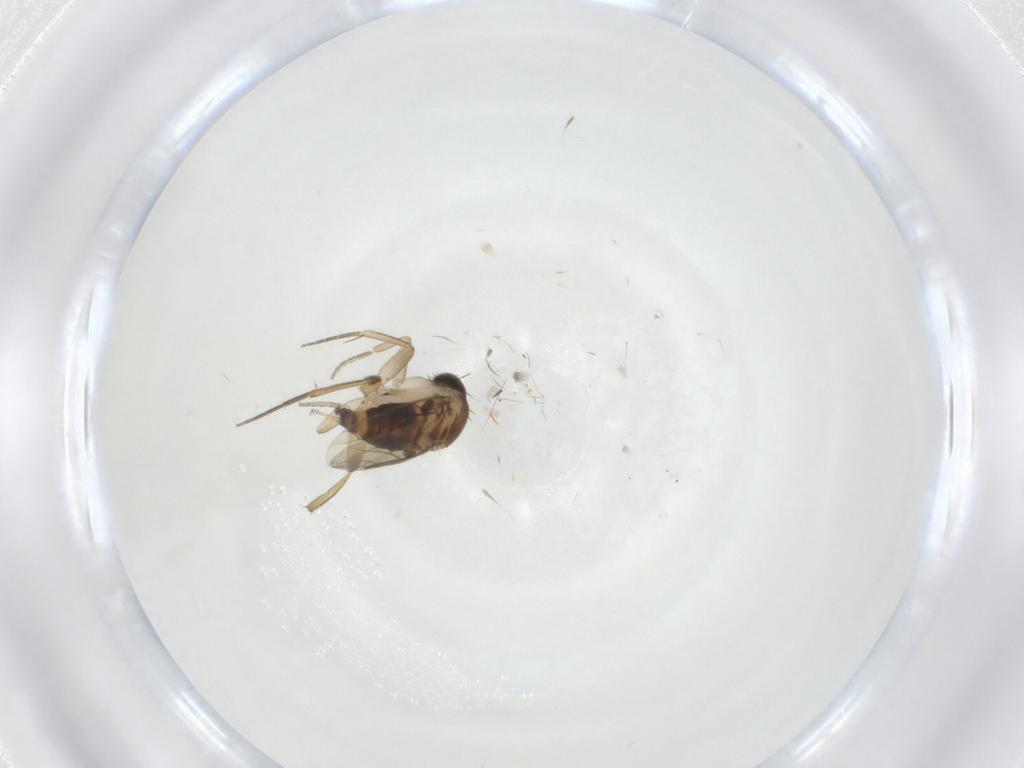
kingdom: Animalia
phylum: Arthropoda
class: Insecta
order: Diptera
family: Phoridae
